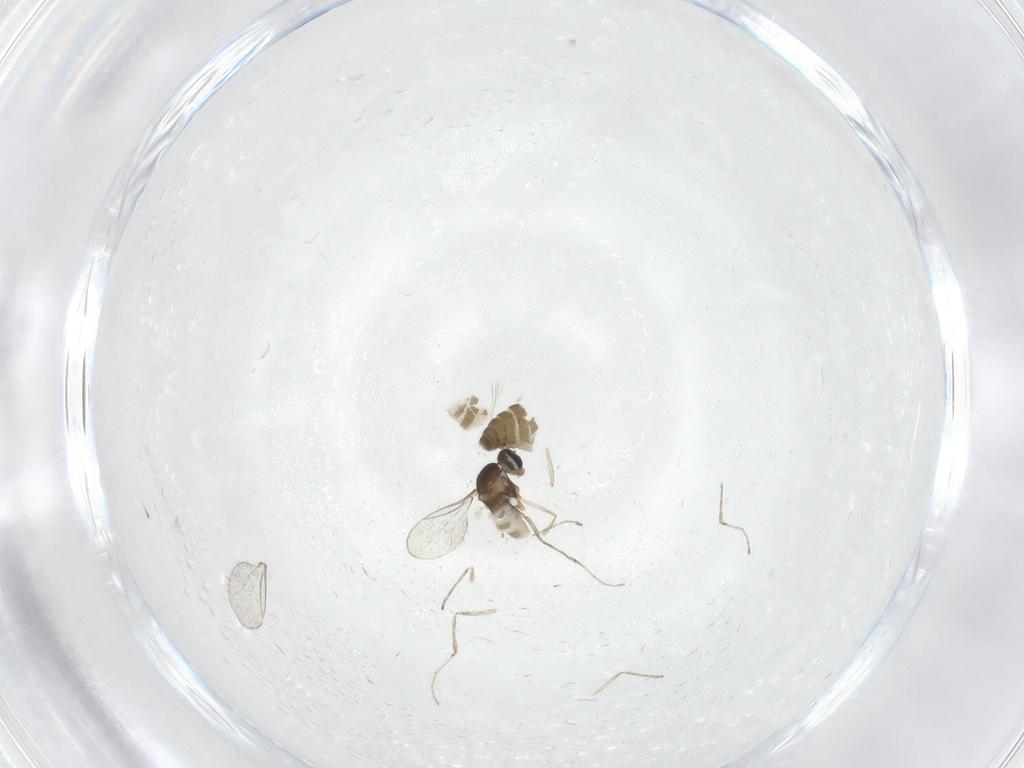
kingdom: Animalia
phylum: Arthropoda
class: Insecta
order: Diptera
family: Cecidomyiidae
